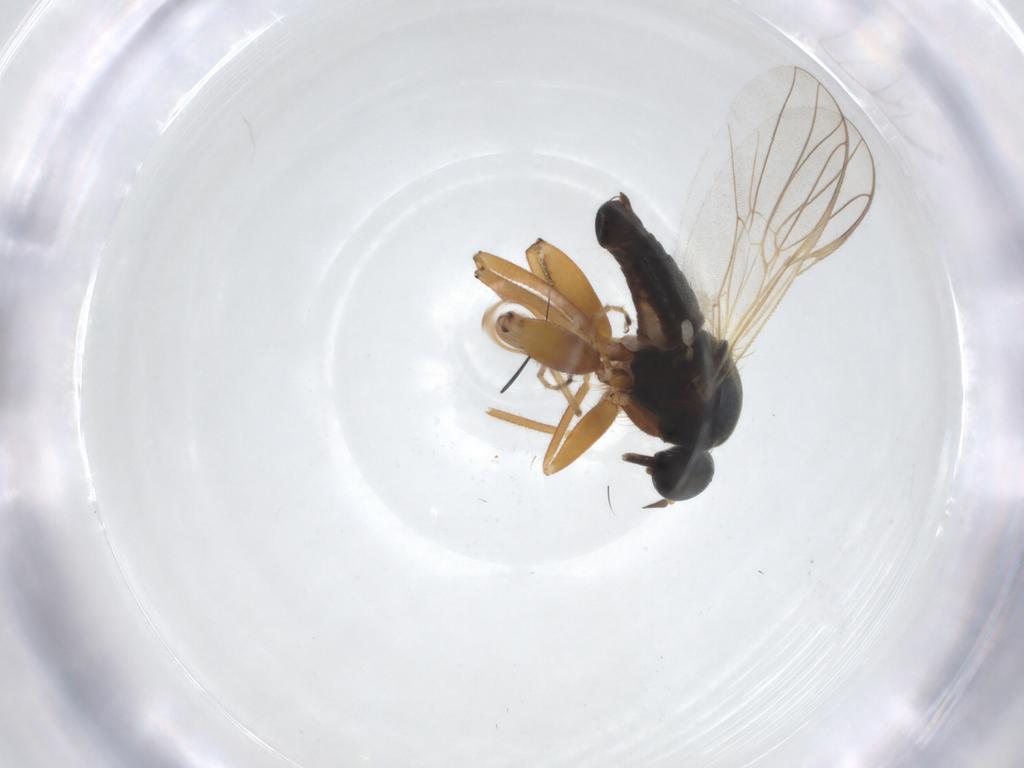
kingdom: Animalia
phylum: Arthropoda
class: Insecta
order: Diptera
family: Hybotidae
